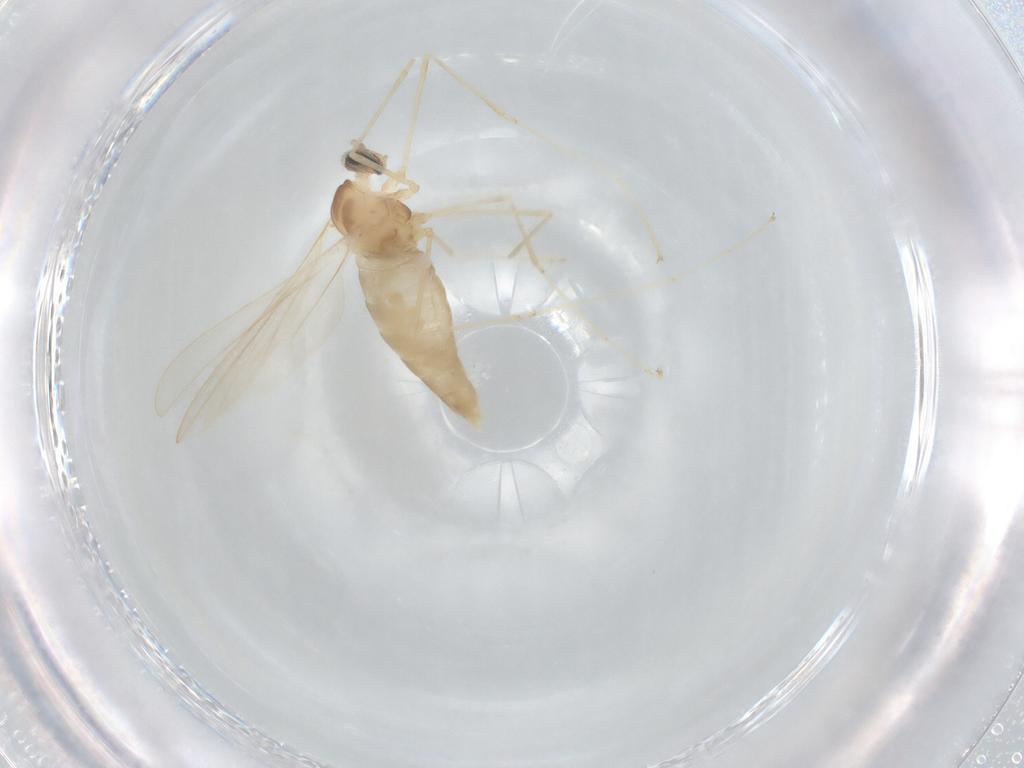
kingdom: Animalia
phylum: Arthropoda
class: Insecta
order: Diptera
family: Cecidomyiidae
